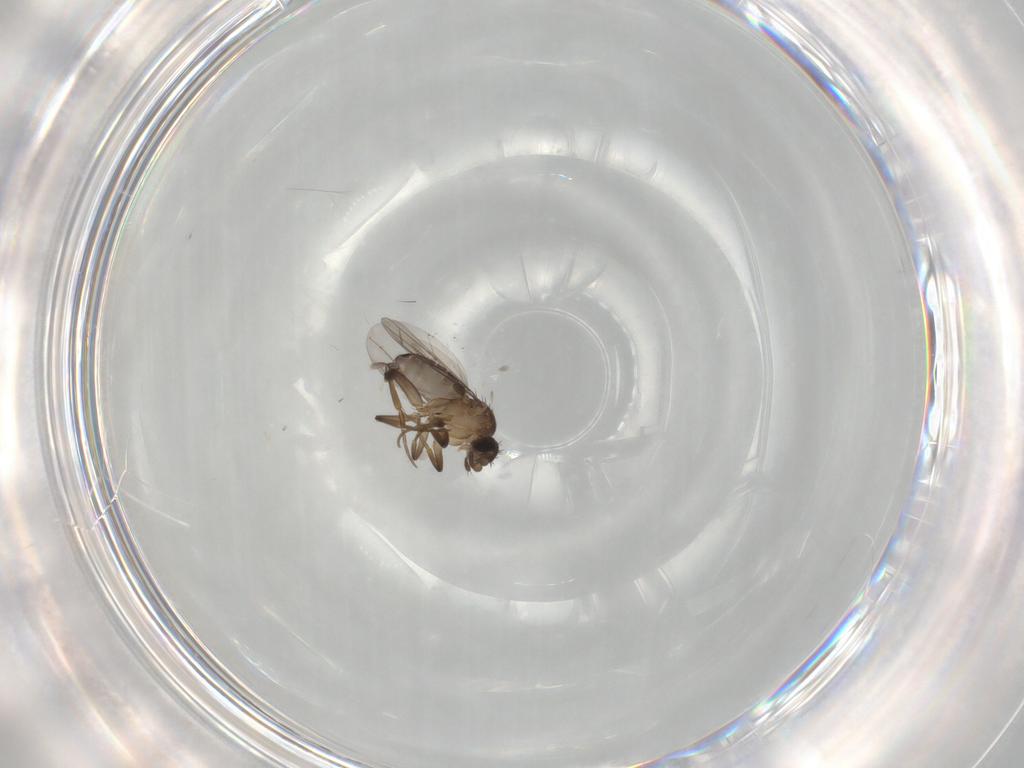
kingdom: Animalia
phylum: Arthropoda
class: Insecta
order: Diptera
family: Phoridae
